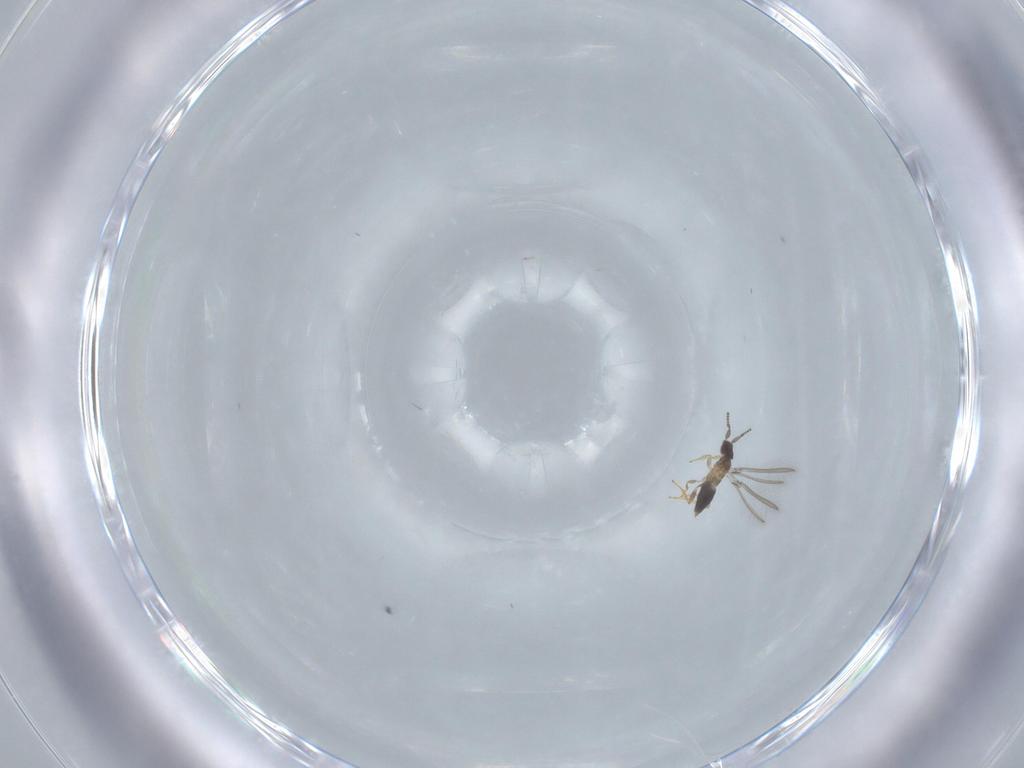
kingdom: Animalia
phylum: Arthropoda
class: Insecta
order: Hymenoptera
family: Mymaridae
